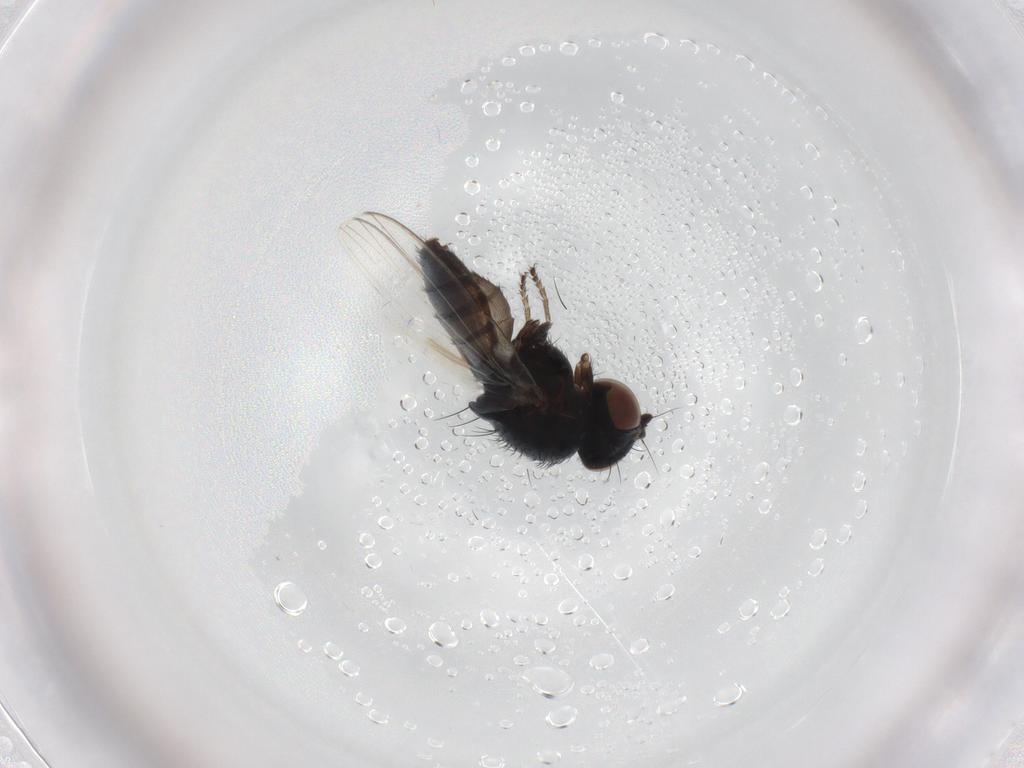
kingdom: Animalia
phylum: Arthropoda
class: Insecta
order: Diptera
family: Milichiidae
